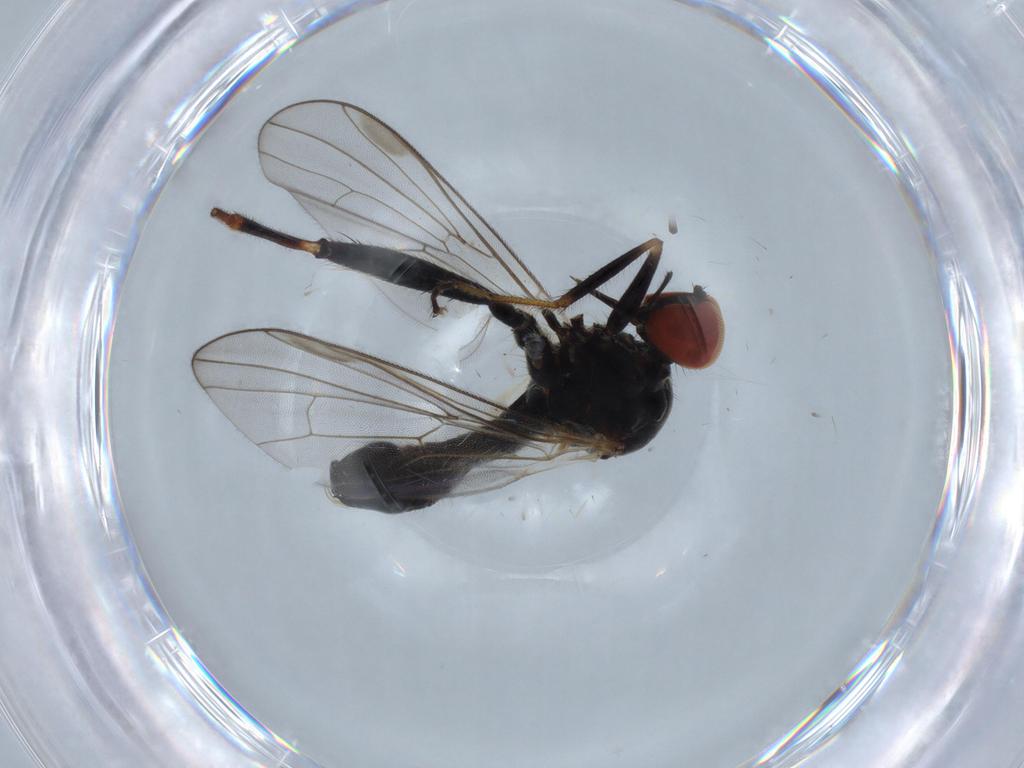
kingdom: Animalia
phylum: Arthropoda
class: Insecta
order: Diptera
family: Hybotidae
